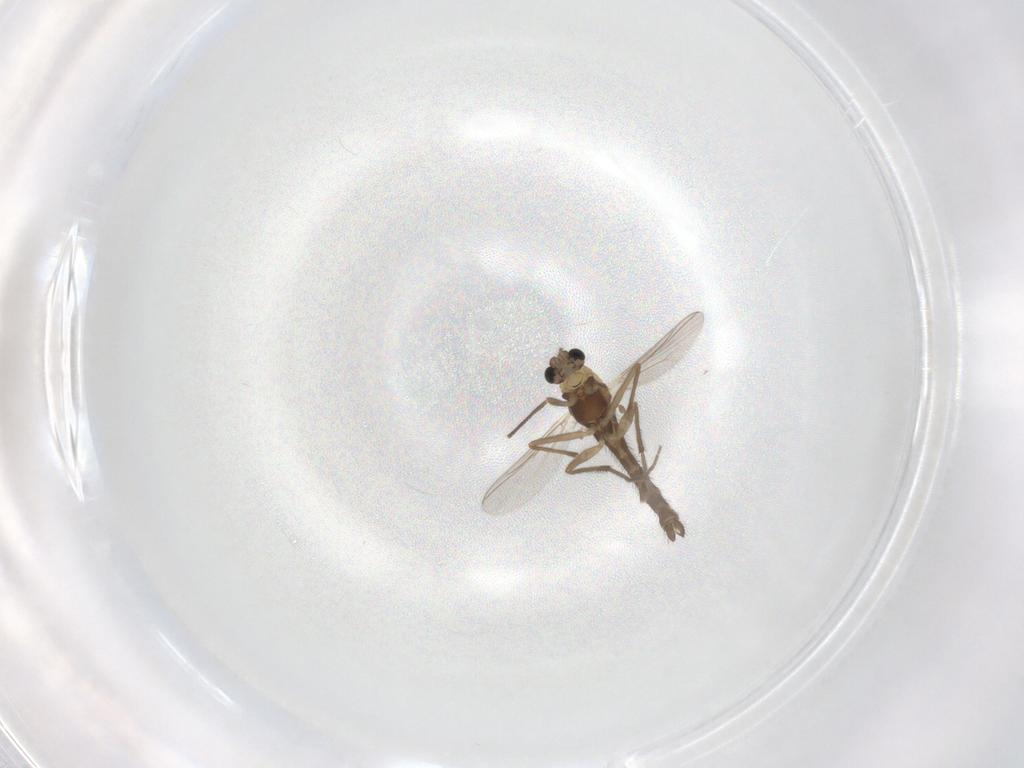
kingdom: Animalia
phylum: Arthropoda
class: Insecta
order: Diptera
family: Chironomidae
